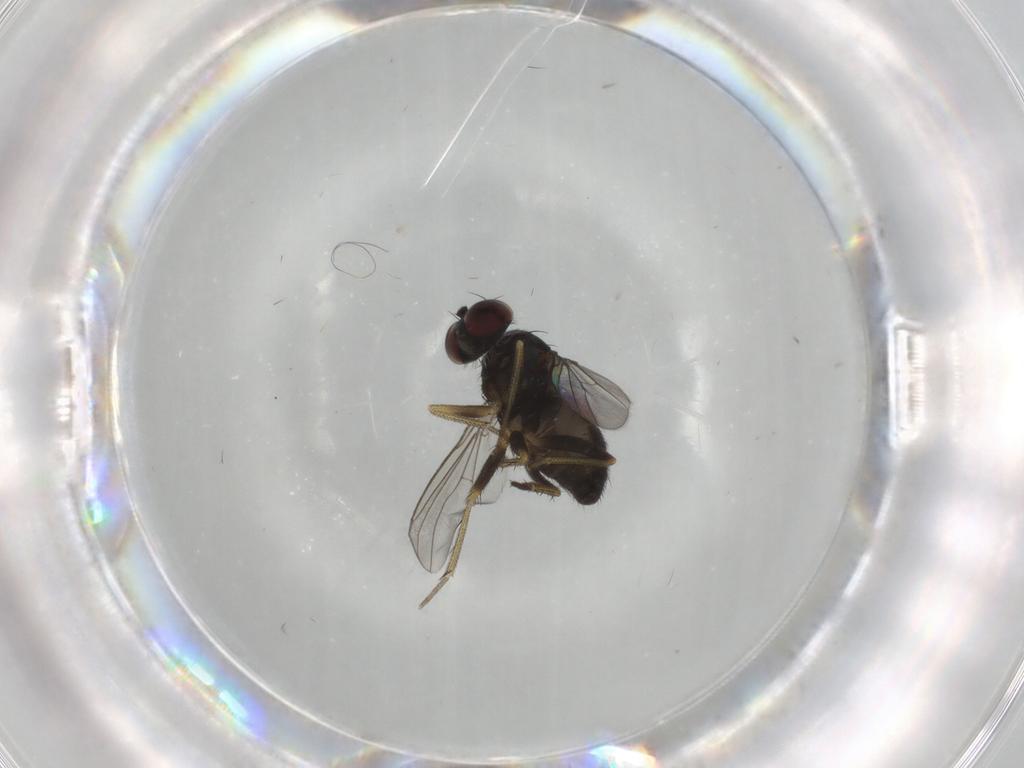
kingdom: Animalia
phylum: Arthropoda
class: Insecta
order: Diptera
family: Dolichopodidae
